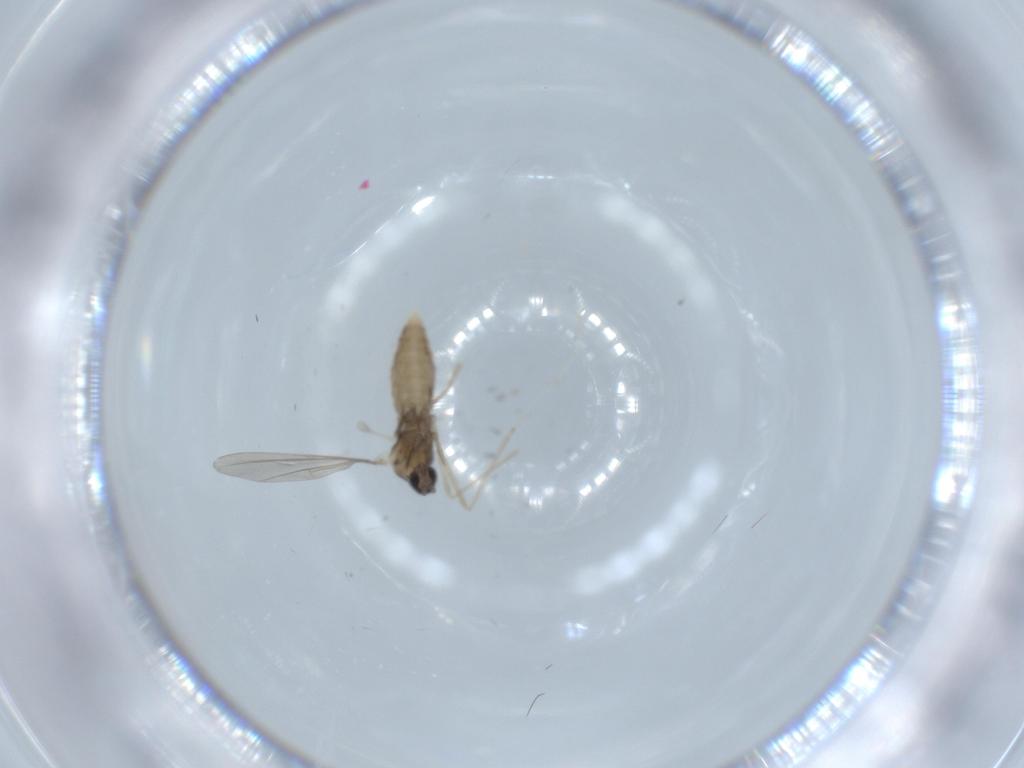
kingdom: Animalia
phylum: Arthropoda
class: Insecta
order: Diptera
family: Cecidomyiidae
